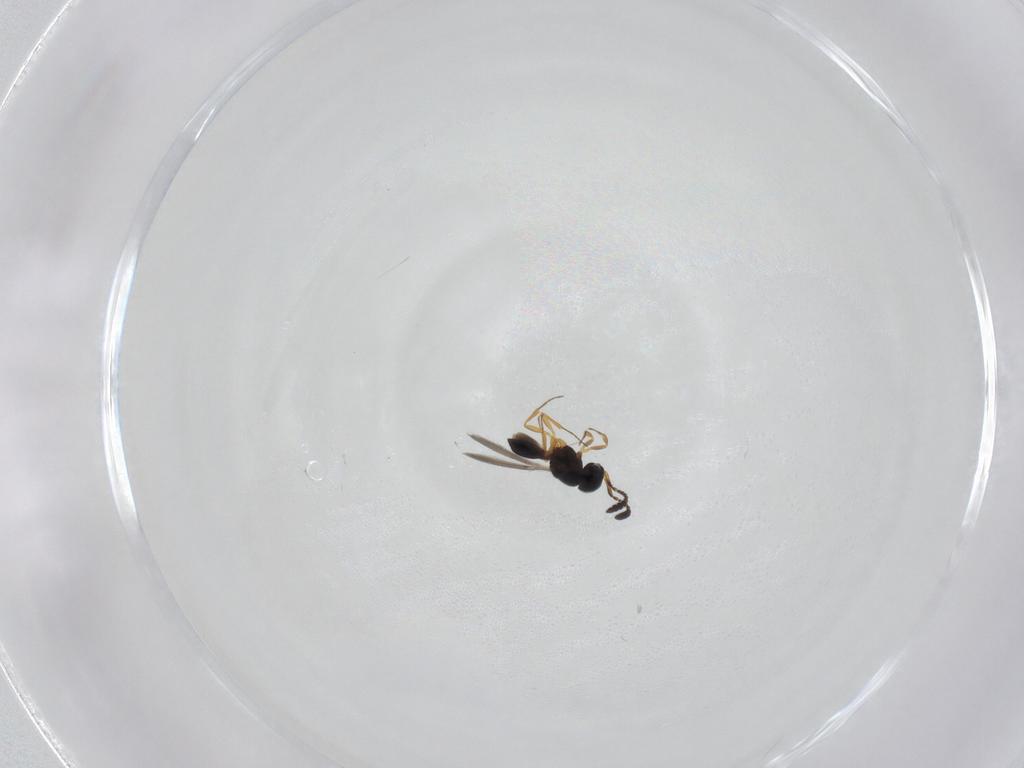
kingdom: Animalia
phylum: Arthropoda
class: Insecta
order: Hymenoptera
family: Scelionidae
